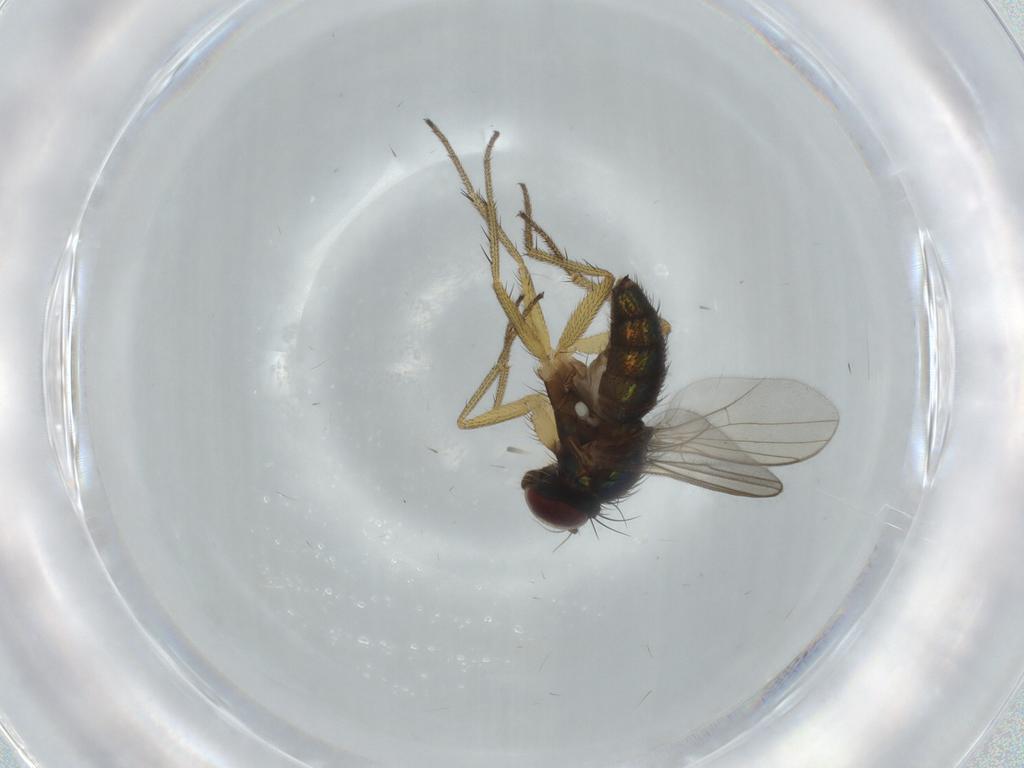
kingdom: Animalia
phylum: Arthropoda
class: Insecta
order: Diptera
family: Dolichopodidae
